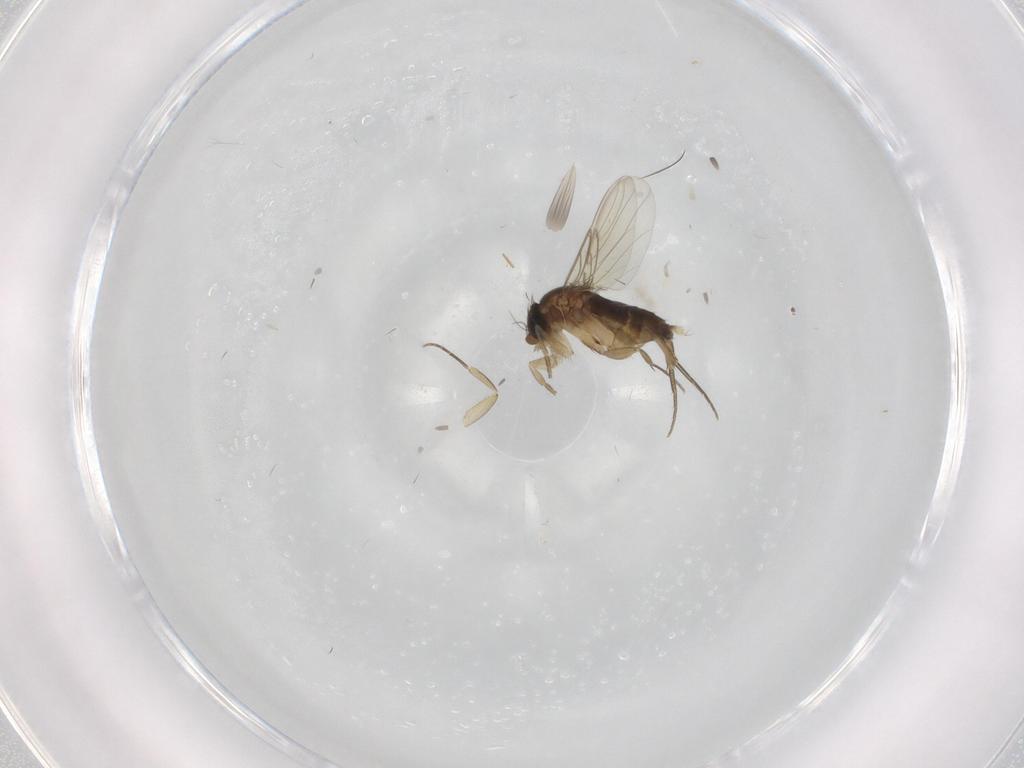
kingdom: Animalia
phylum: Arthropoda
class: Insecta
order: Diptera
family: Phoridae
